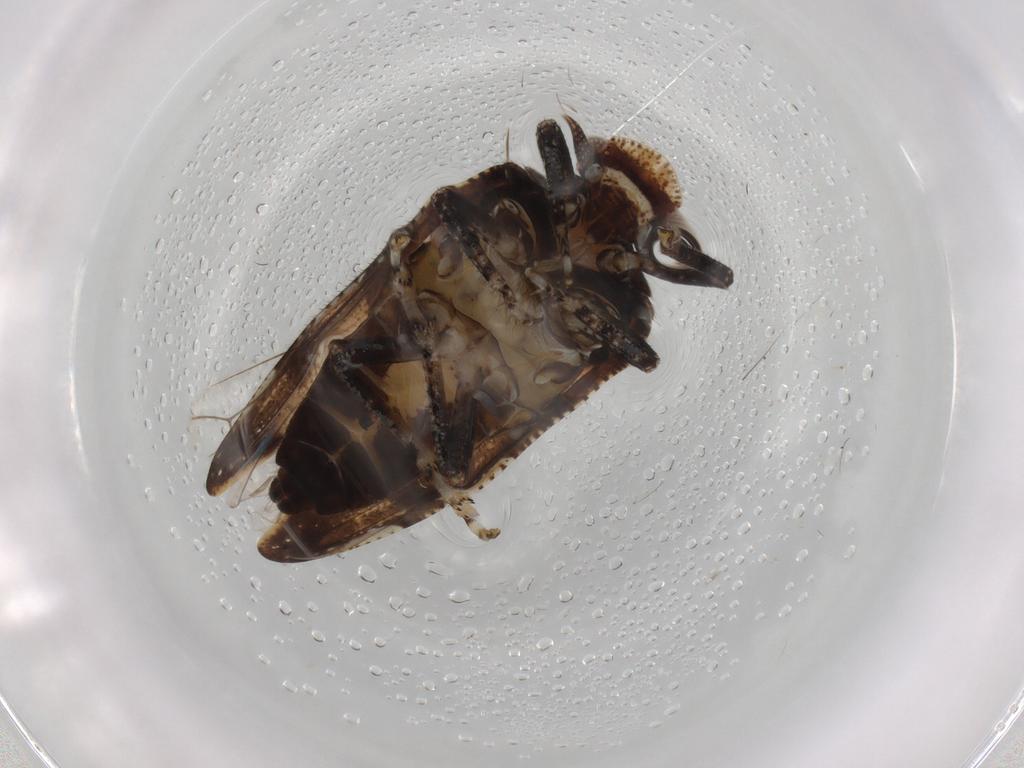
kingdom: Animalia
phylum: Arthropoda
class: Insecta
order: Hemiptera
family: Tettigometridae
